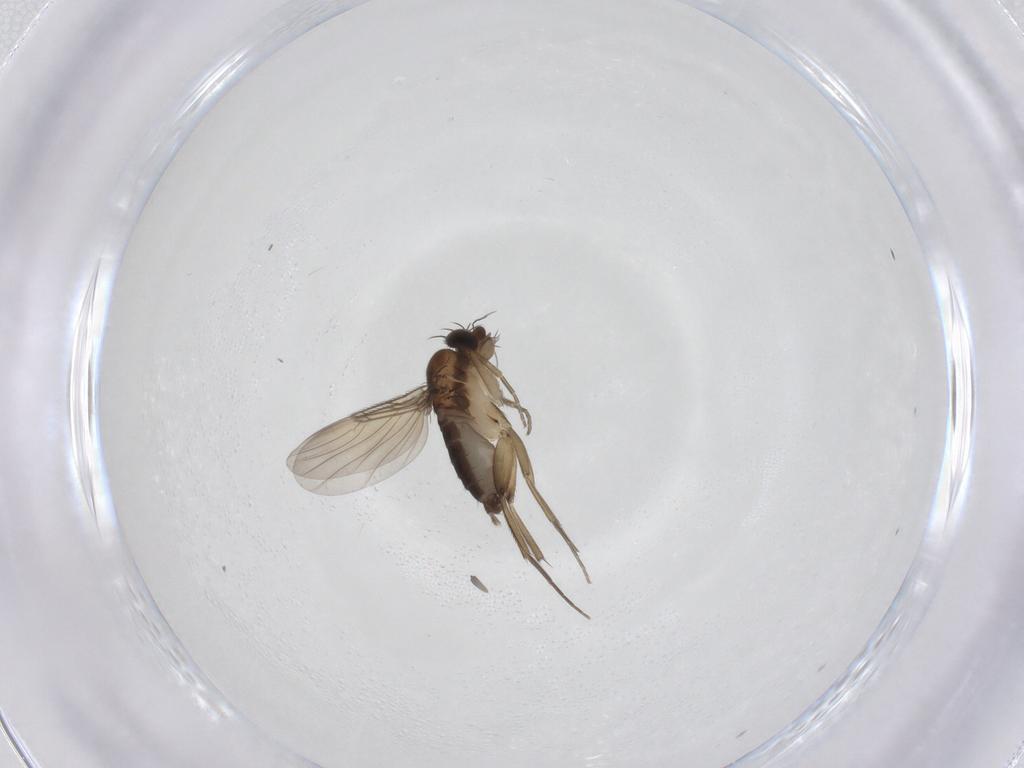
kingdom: Animalia
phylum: Arthropoda
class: Insecta
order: Diptera
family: Phoridae
